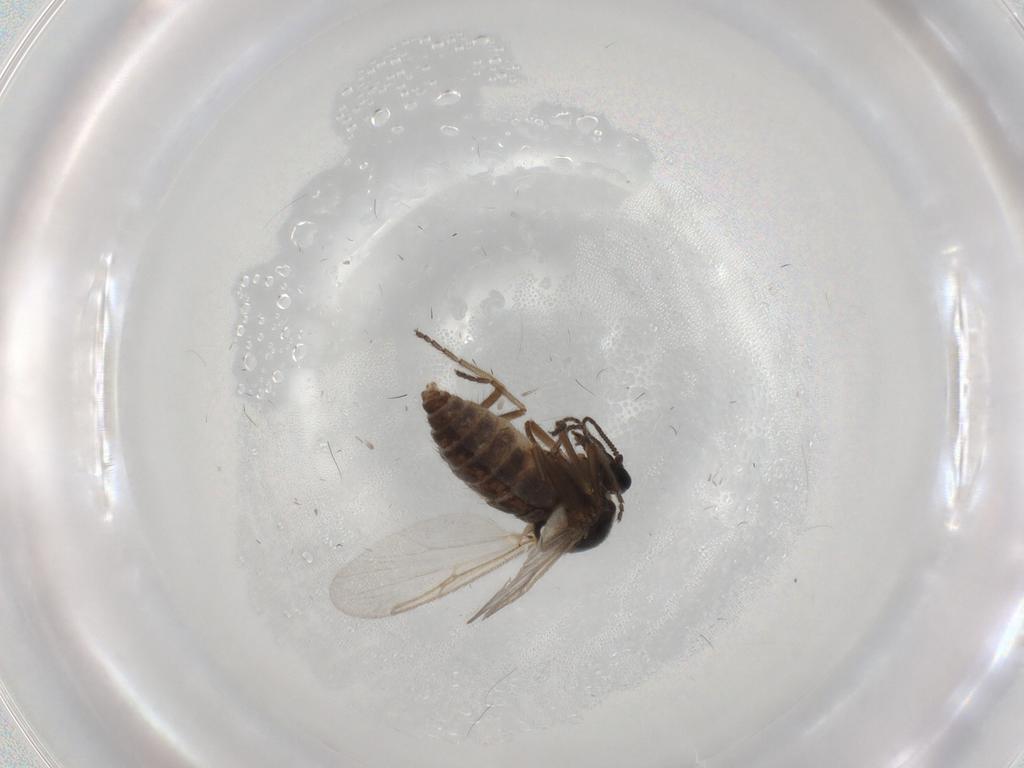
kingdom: Animalia
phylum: Arthropoda
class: Insecta
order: Diptera
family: Ceratopogonidae
